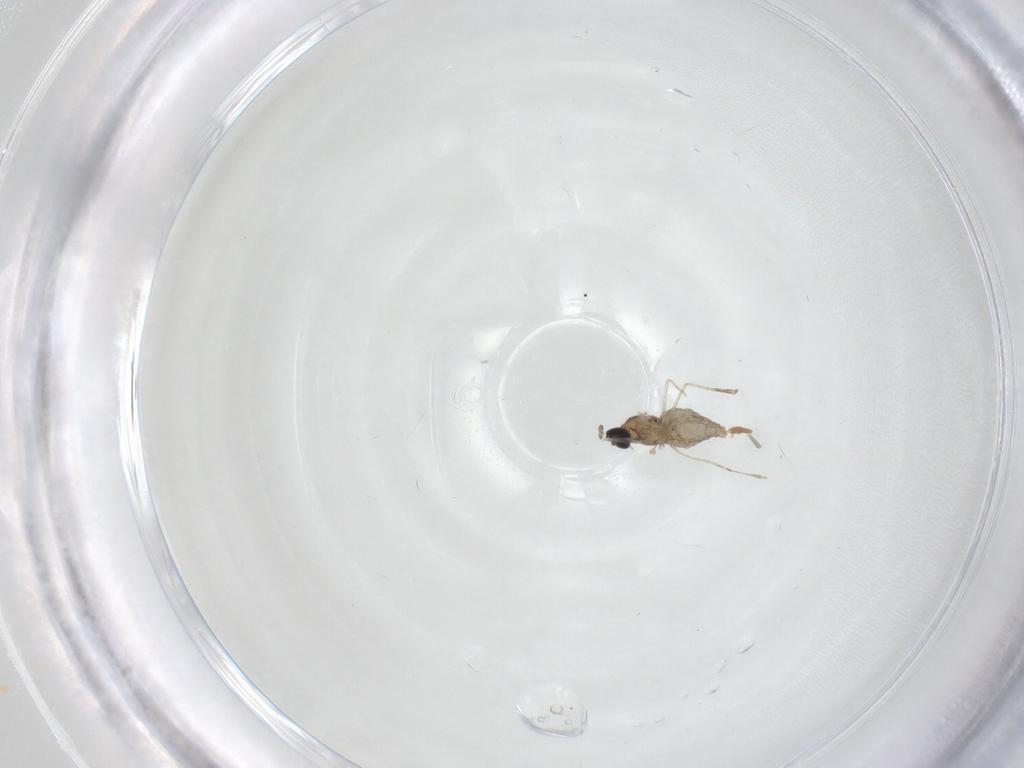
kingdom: Animalia
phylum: Arthropoda
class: Insecta
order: Diptera
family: Cecidomyiidae
